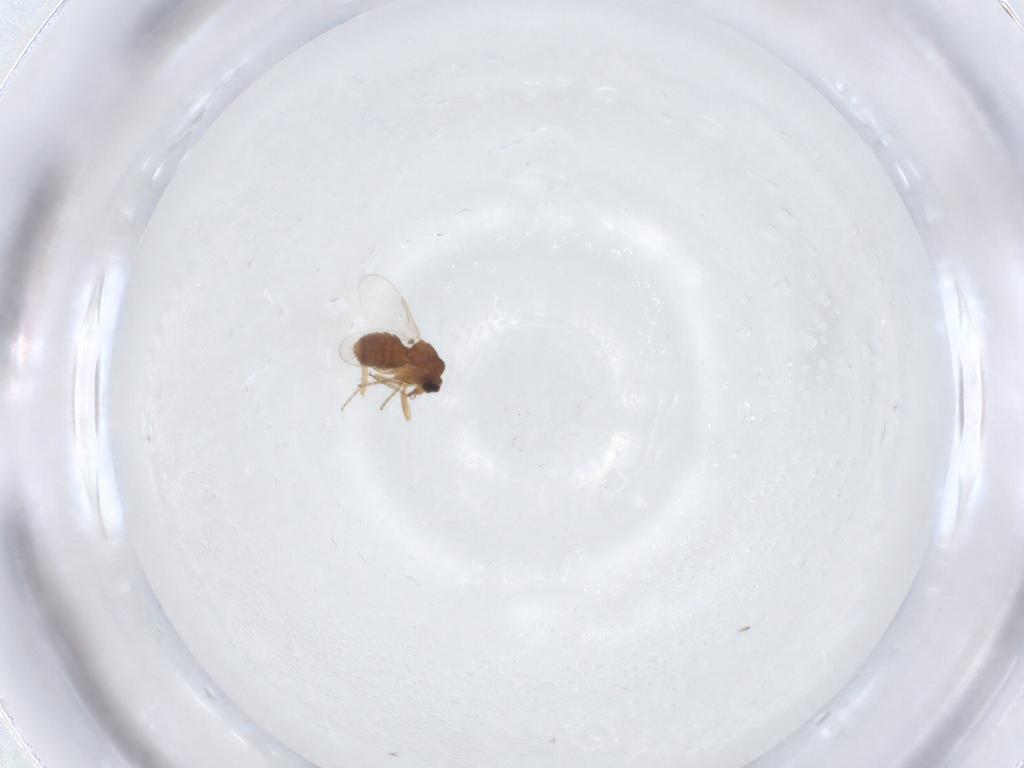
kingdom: Animalia
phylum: Arthropoda
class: Insecta
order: Diptera
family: Ceratopogonidae
